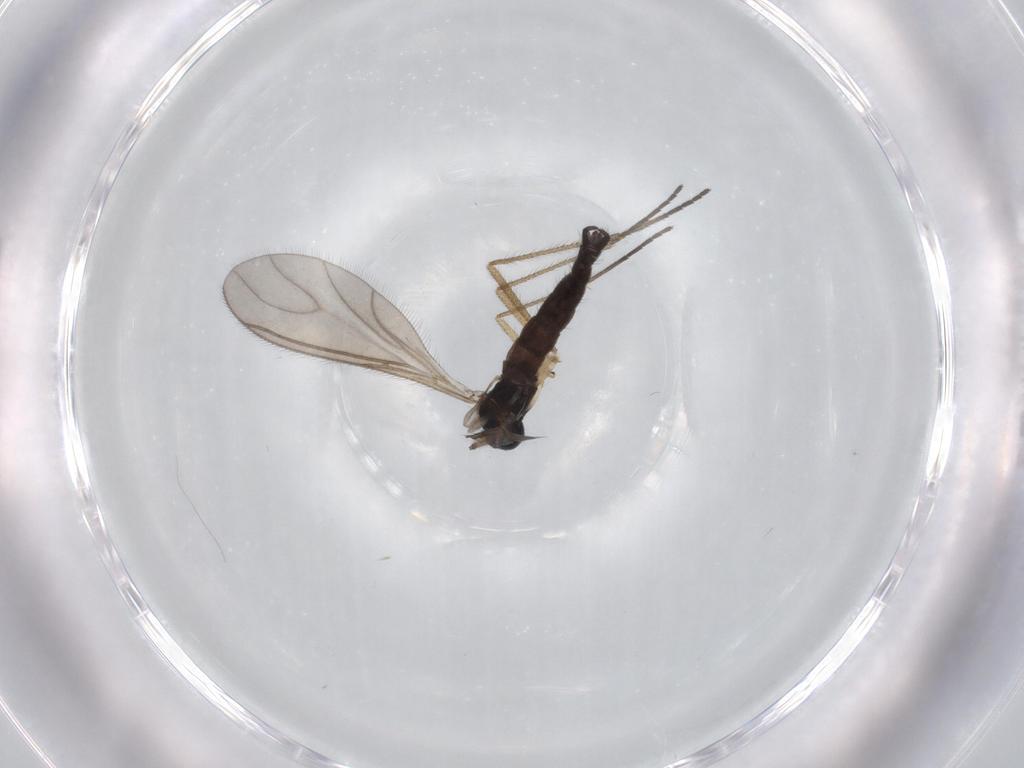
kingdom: Animalia
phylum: Arthropoda
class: Insecta
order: Diptera
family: Sciaridae
